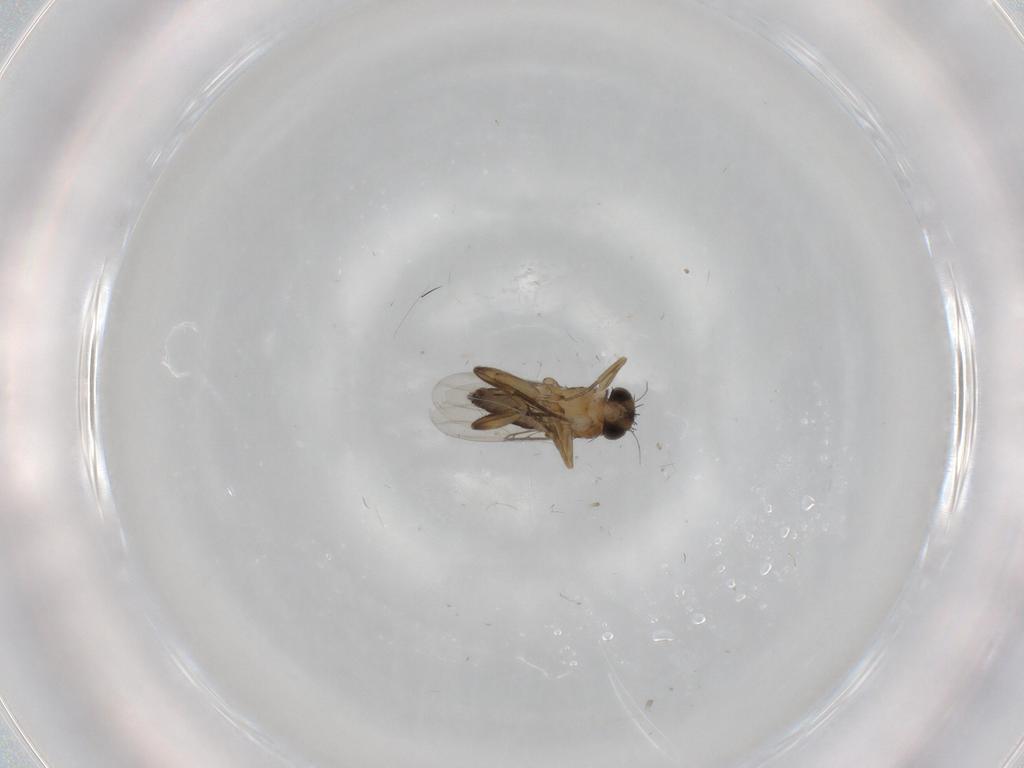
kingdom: Animalia
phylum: Arthropoda
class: Insecta
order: Diptera
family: Phoridae
